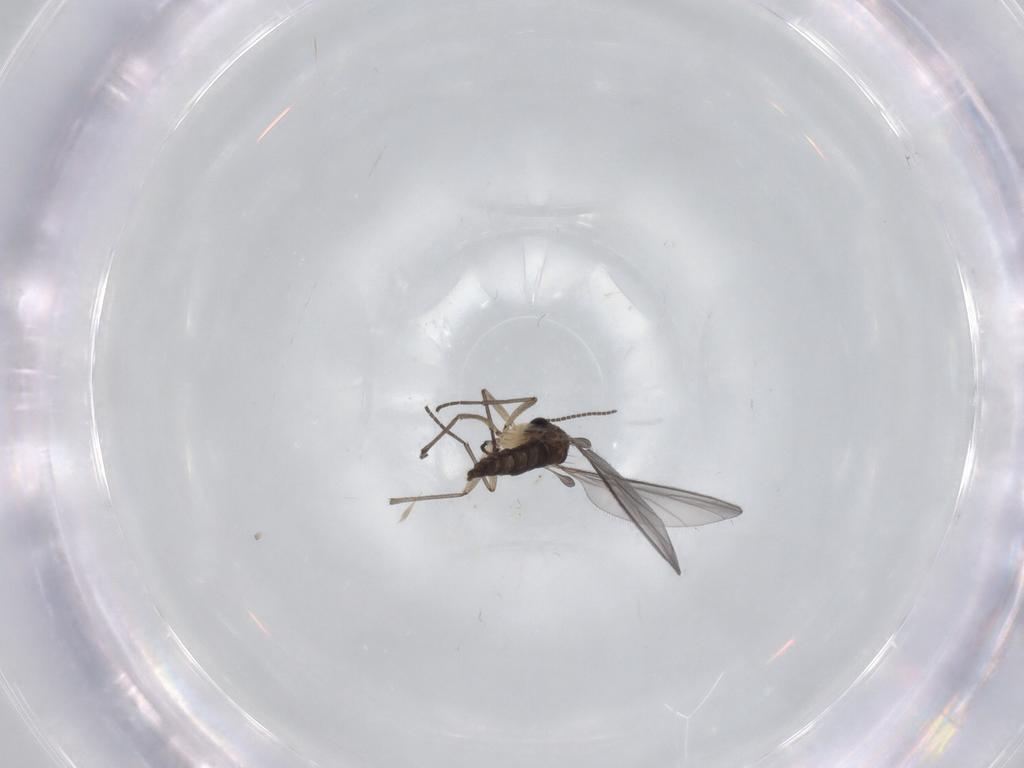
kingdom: Animalia
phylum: Arthropoda
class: Insecta
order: Diptera
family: Sciaridae
